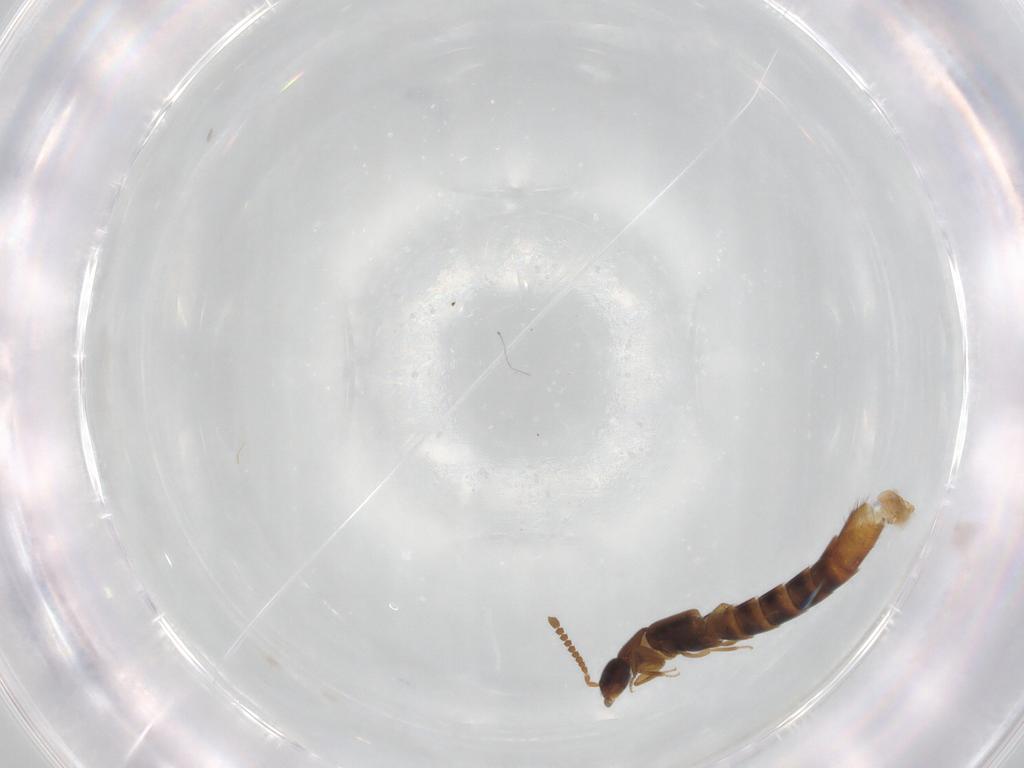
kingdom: Animalia
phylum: Arthropoda
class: Insecta
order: Coleoptera
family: Staphylinidae
